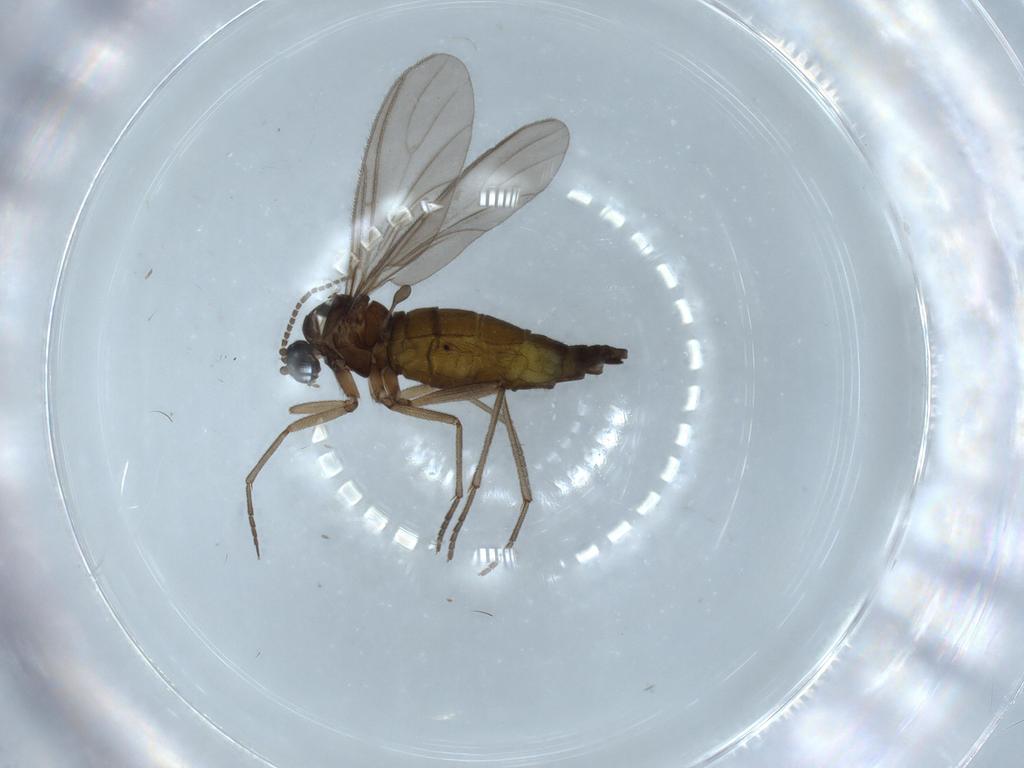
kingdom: Animalia
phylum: Arthropoda
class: Insecta
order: Diptera
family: Sciaridae
